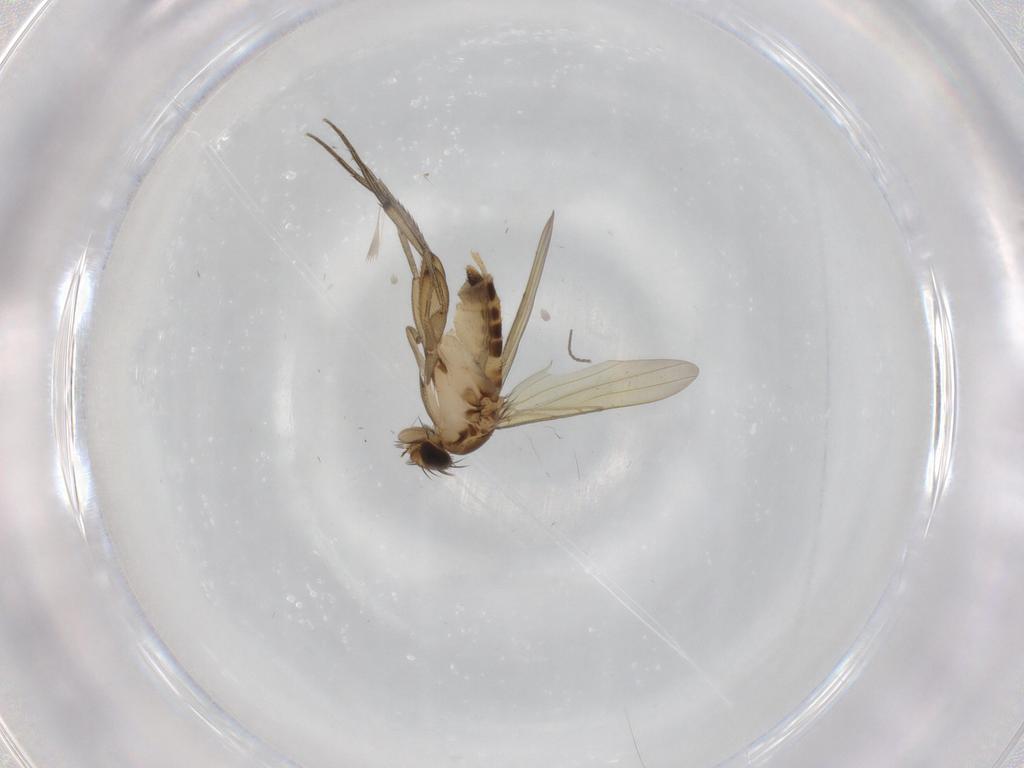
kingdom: Animalia
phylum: Arthropoda
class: Insecta
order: Diptera
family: Phoridae
